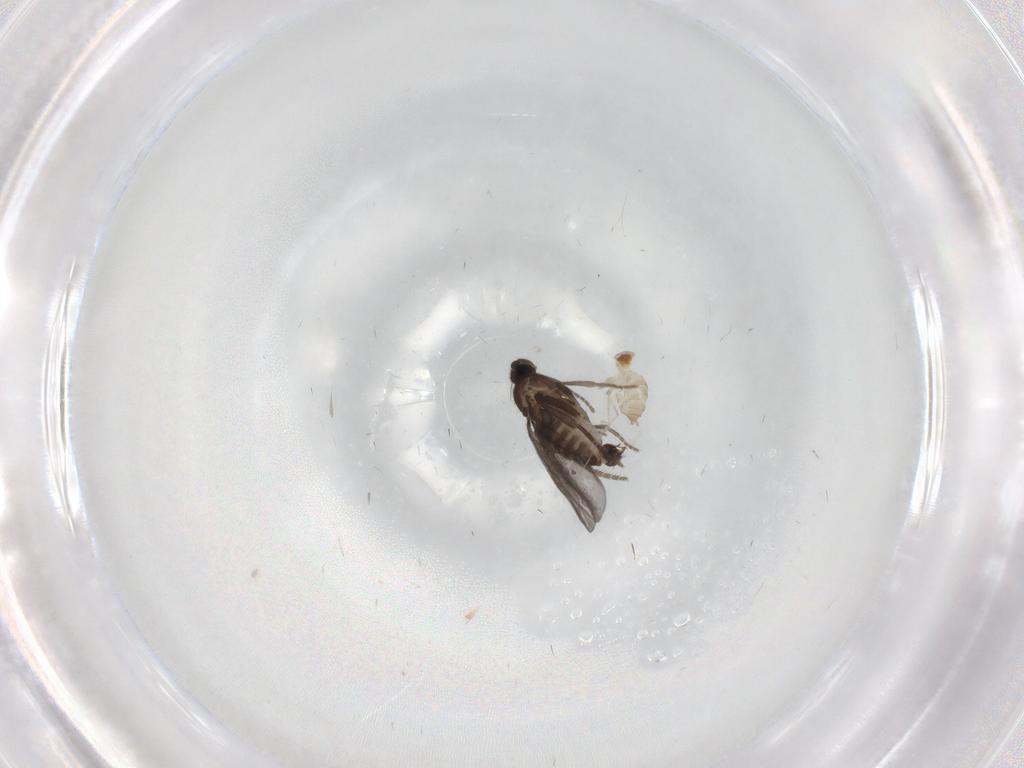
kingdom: Animalia
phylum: Arthropoda
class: Insecta
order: Diptera
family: Phoridae
